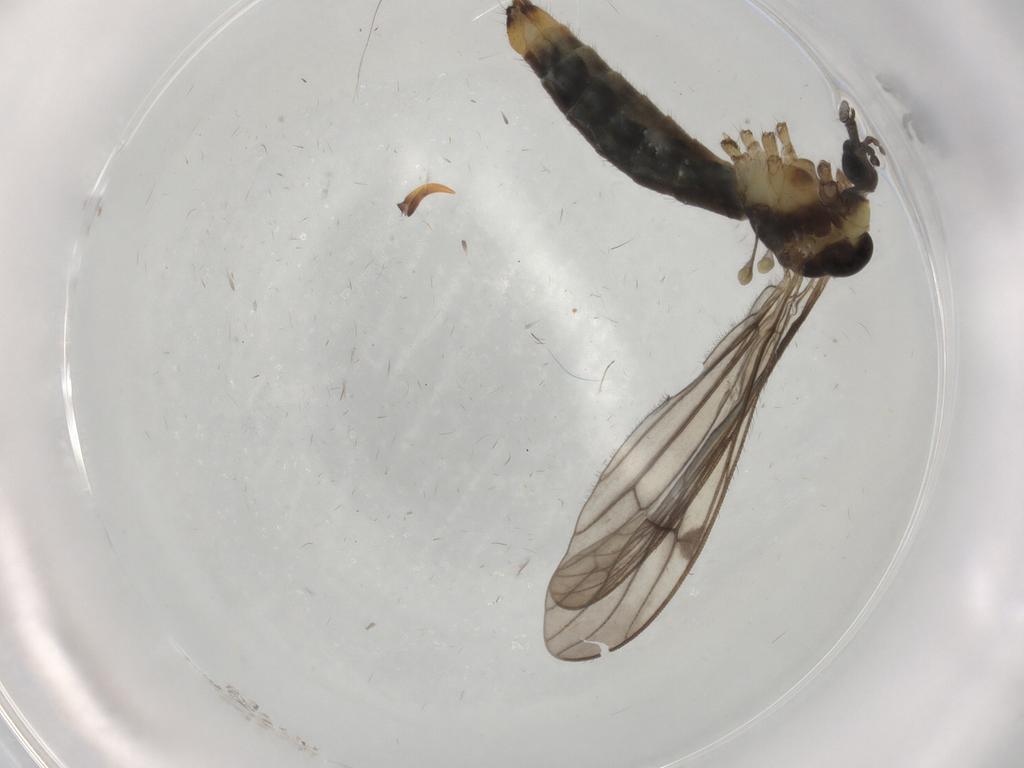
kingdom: Animalia
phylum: Arthropoda
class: Insecta
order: Diptera
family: Limoniidae
